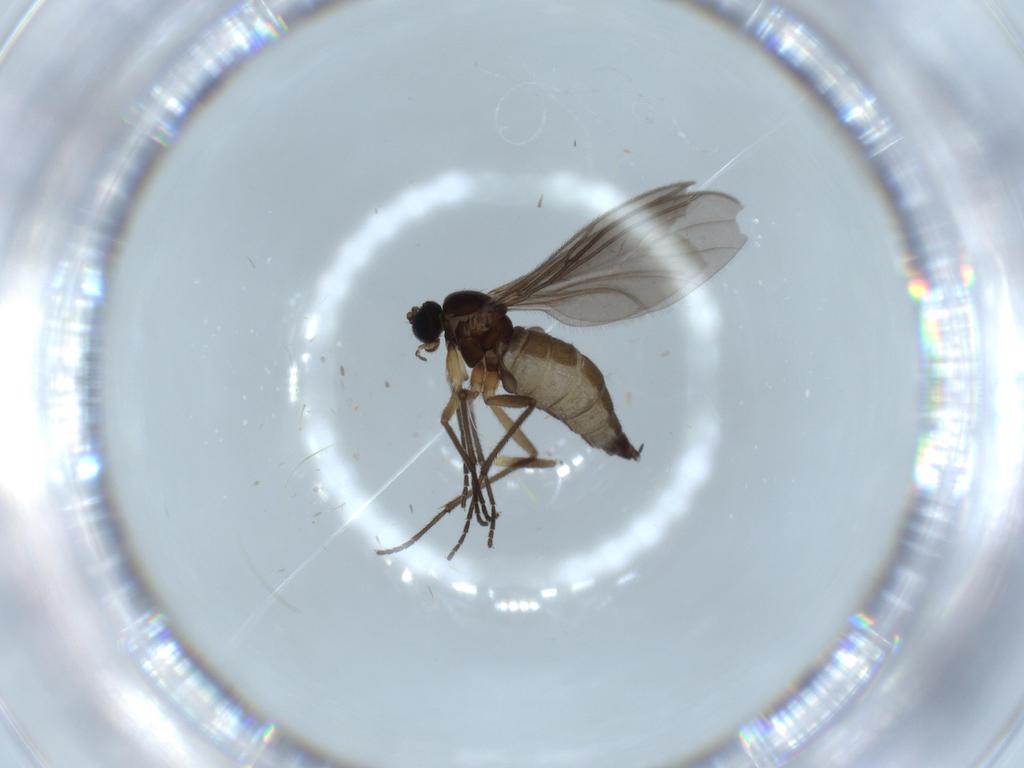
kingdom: Animalia
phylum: Arthropoda
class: Insecta
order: Diptera
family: Sciaridae
